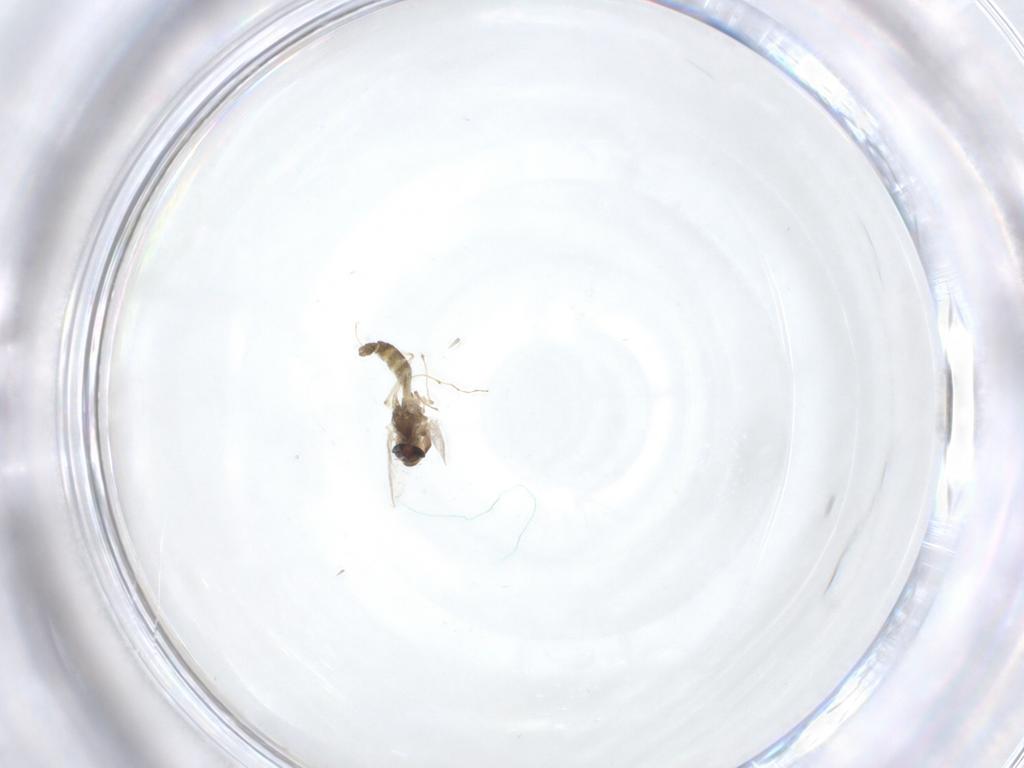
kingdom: Animalia
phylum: Arthropoda
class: Insecta
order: Diptera
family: Chironomidae
